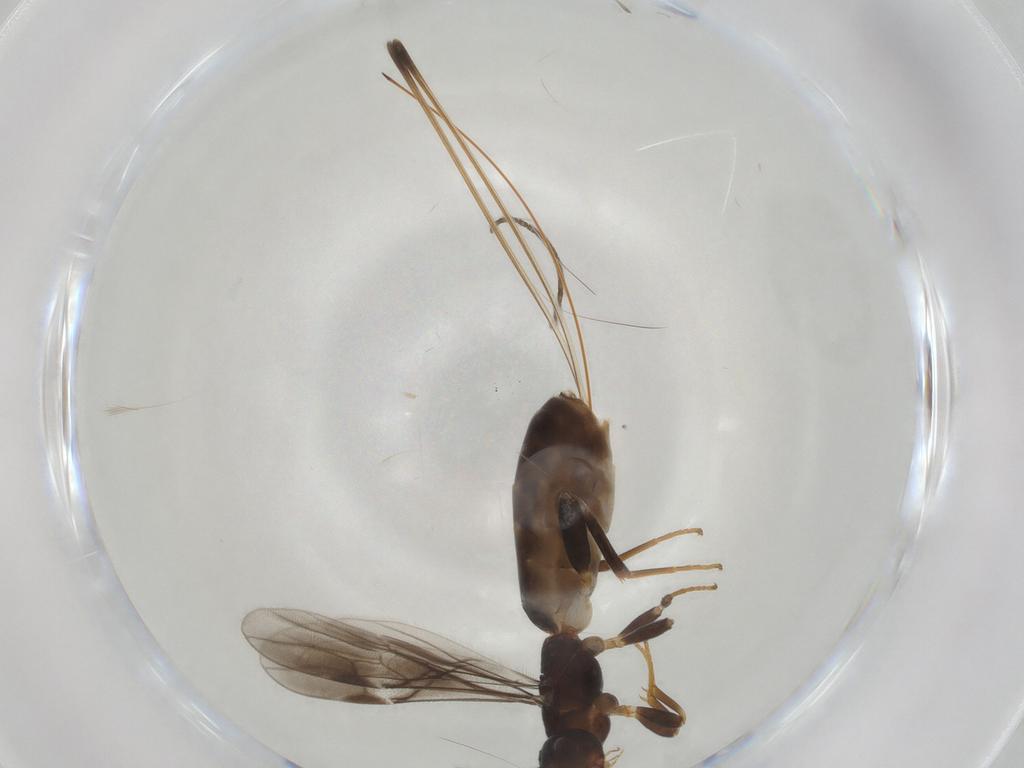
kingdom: Animalia
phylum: Arthropoda
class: Insecta
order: Hymenoptera
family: Braconidae
